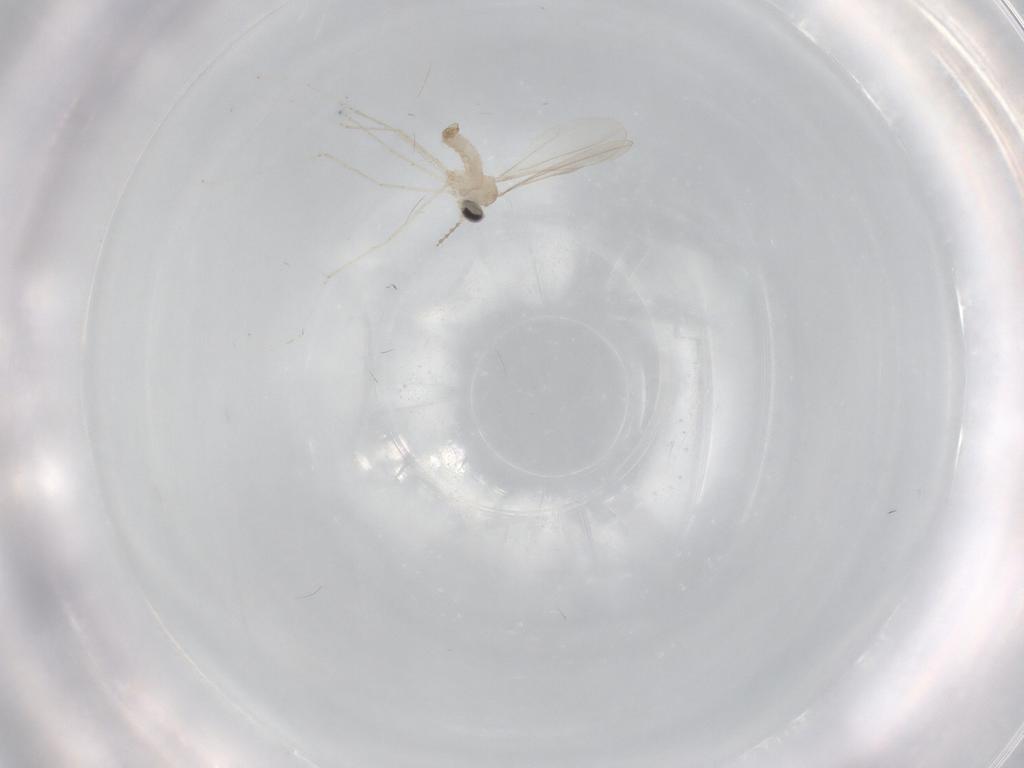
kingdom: Animalia
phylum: Arthropoda
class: Insecta
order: Diptera
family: Cecidomyiidae
